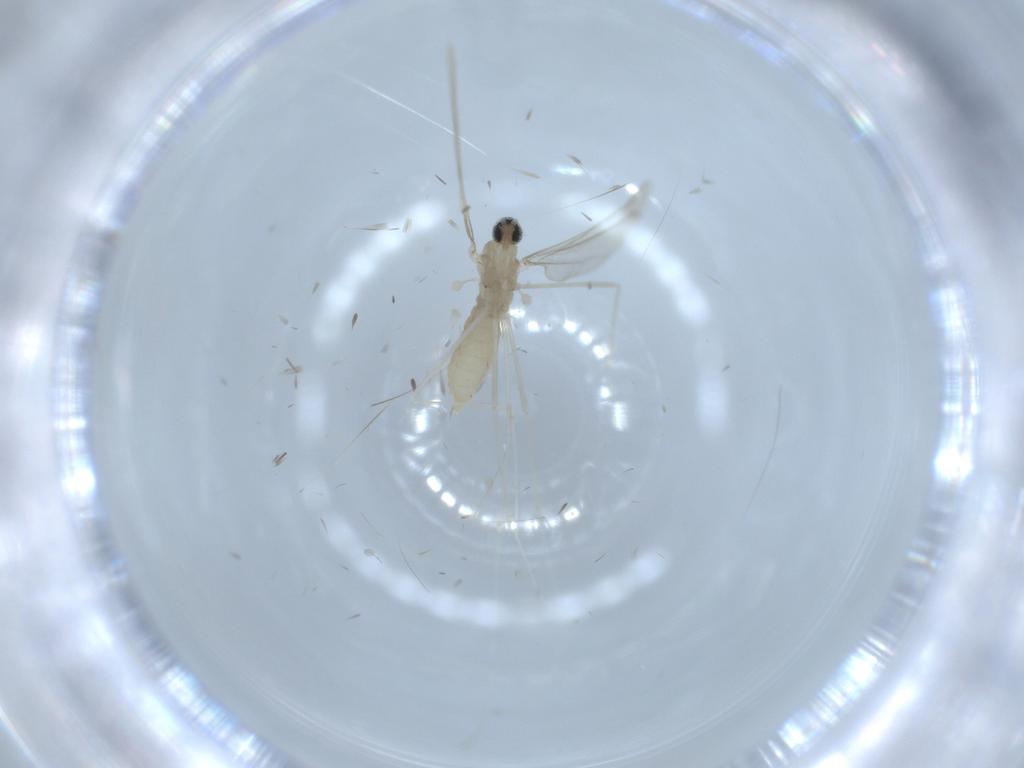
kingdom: Animalia
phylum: Arthropoda
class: Insecta
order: Diptera
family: Cecidomyiidae
